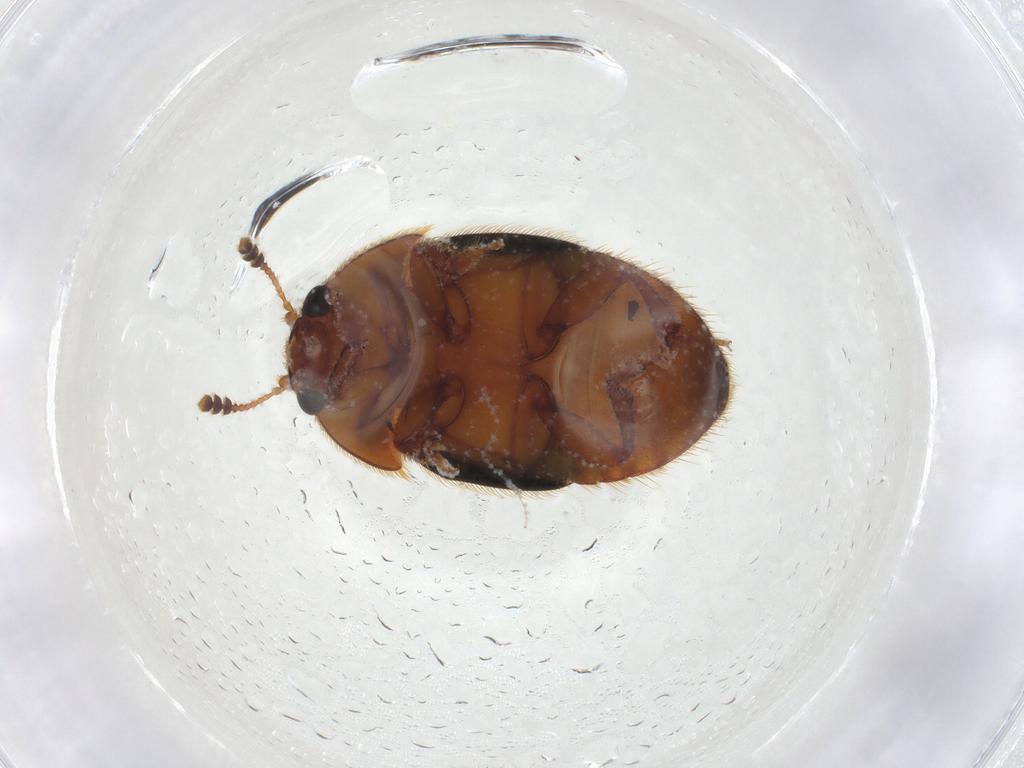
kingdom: Animalia
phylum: Arthropoda
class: Insecta
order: Coleoptera
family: Nitidulidae
